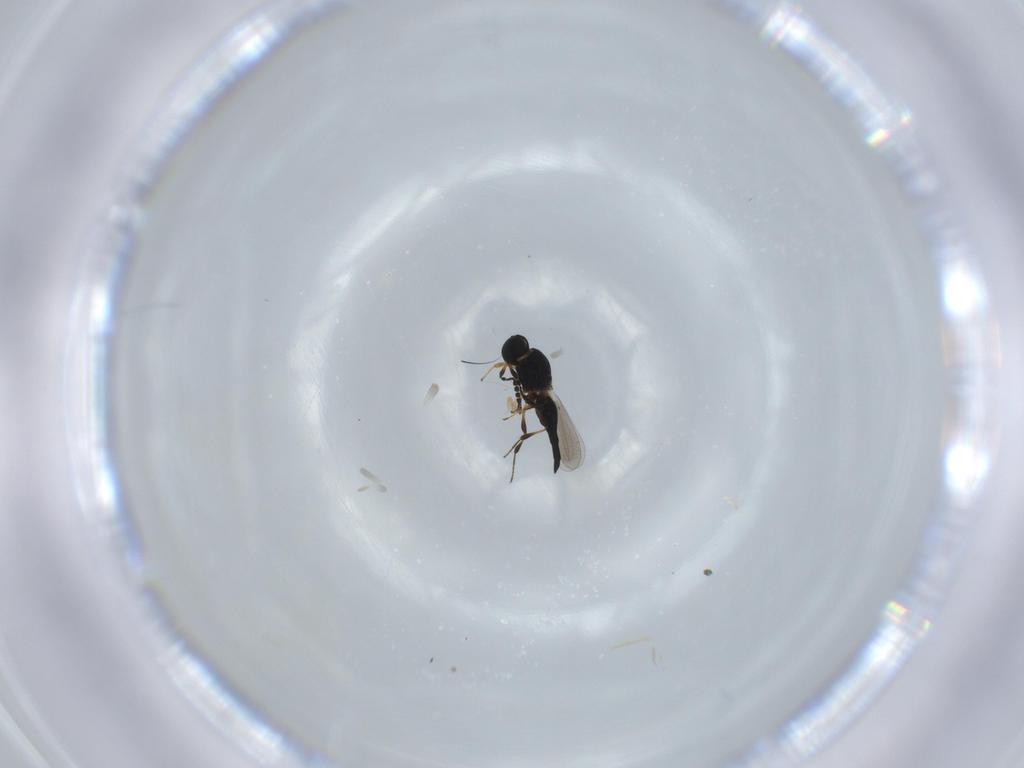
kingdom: Animalia
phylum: Arthropoda
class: Insecta
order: Hymenoptera
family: Platygastridae
